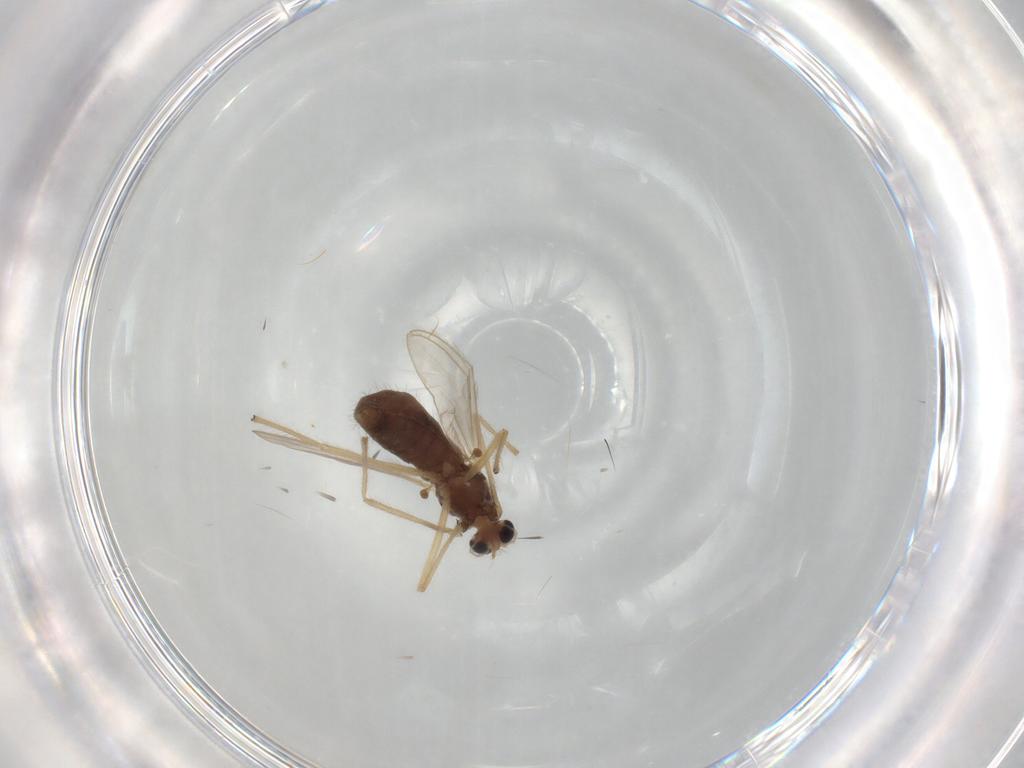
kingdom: Animalia
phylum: Arthropoda
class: Insecta
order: Diptera
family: Chironomidae
